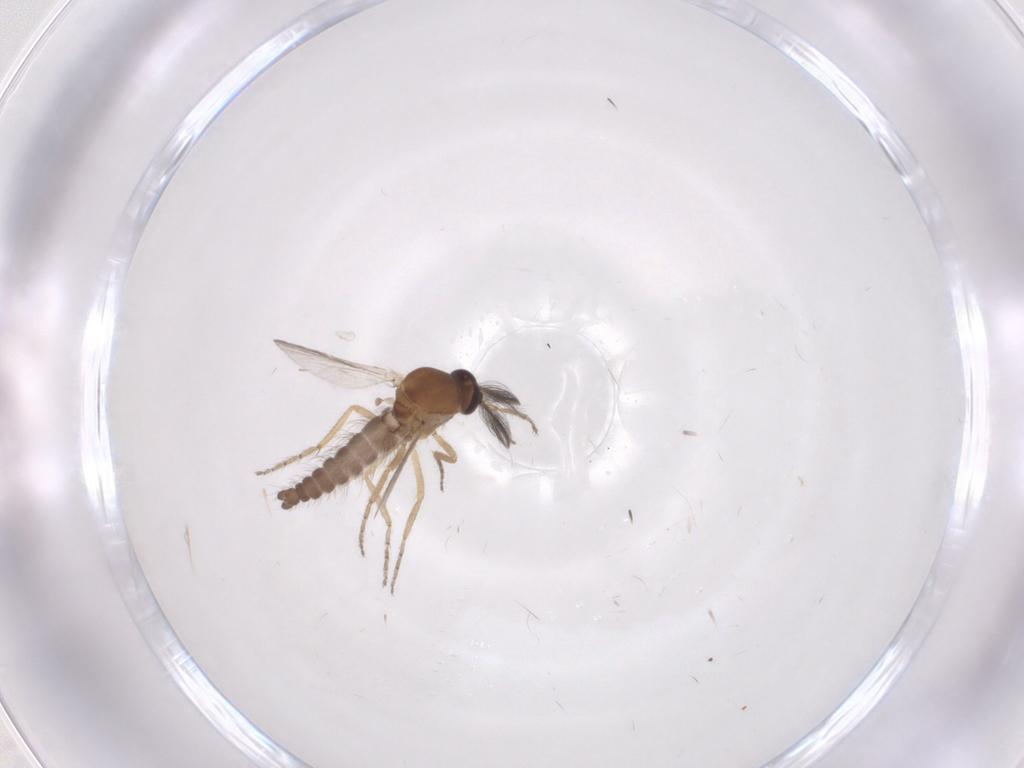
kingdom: Animalia
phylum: Arthropoda
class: Insecta
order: Diptera
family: Ceratopogonidae
